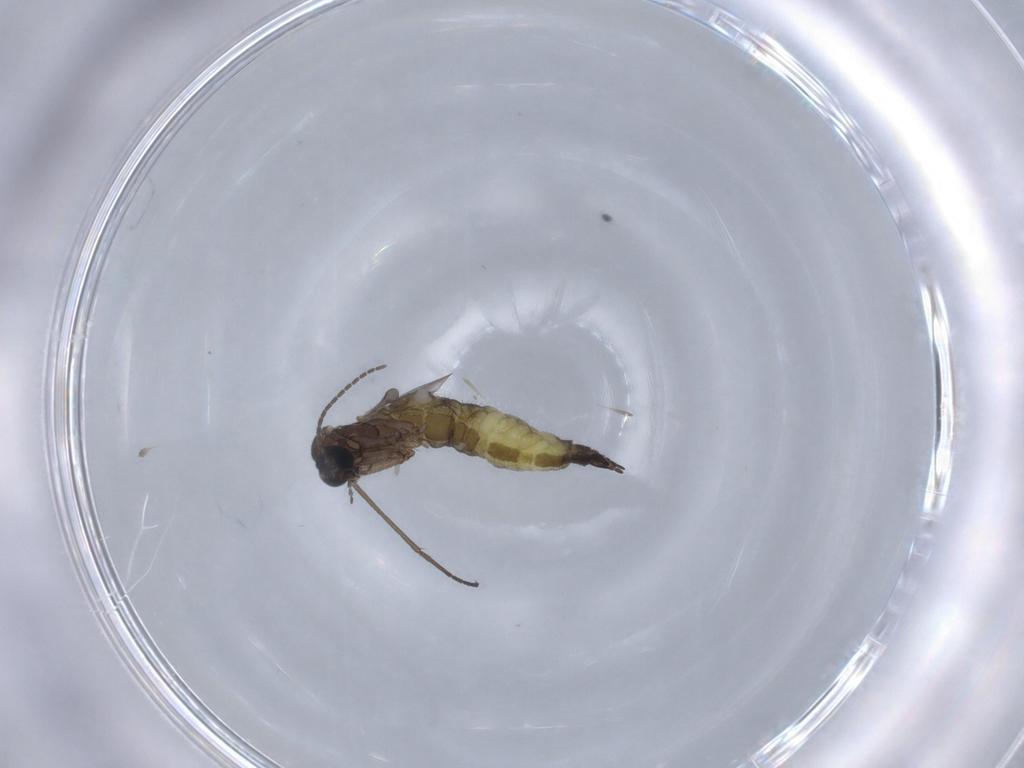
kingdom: Animalia
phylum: Arthropoda
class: Insecta
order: Diptera
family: Sciaridae
